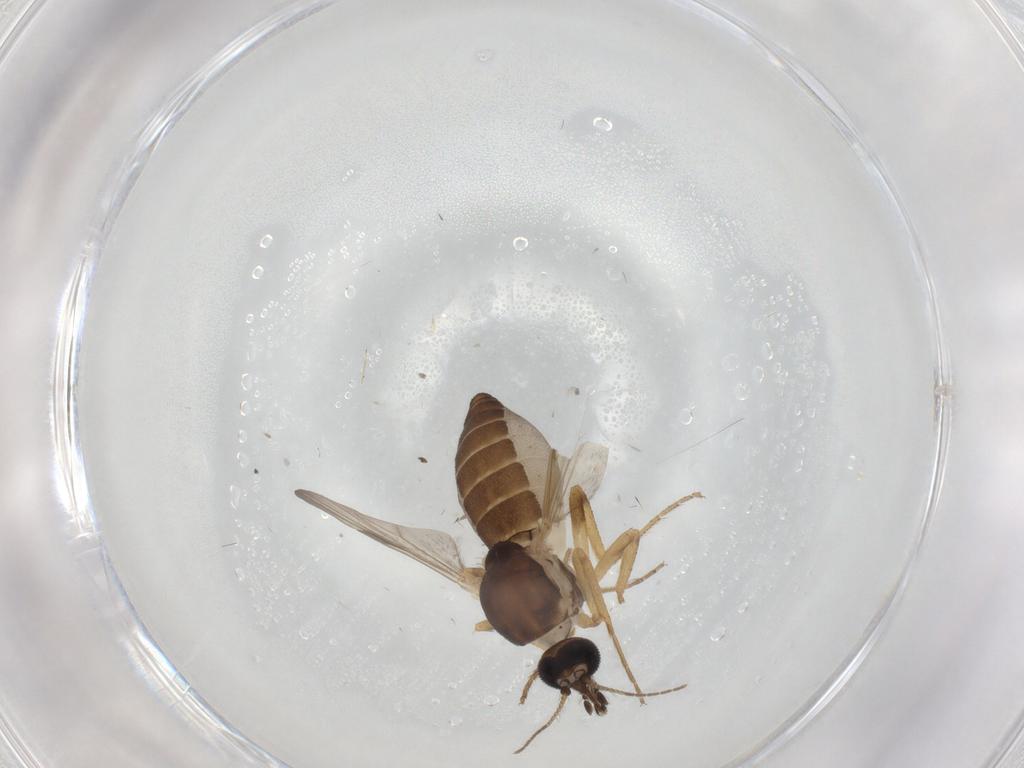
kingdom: Animalia
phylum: Arthropoda
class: Insecta
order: Diptera
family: Ceratopogonidae
